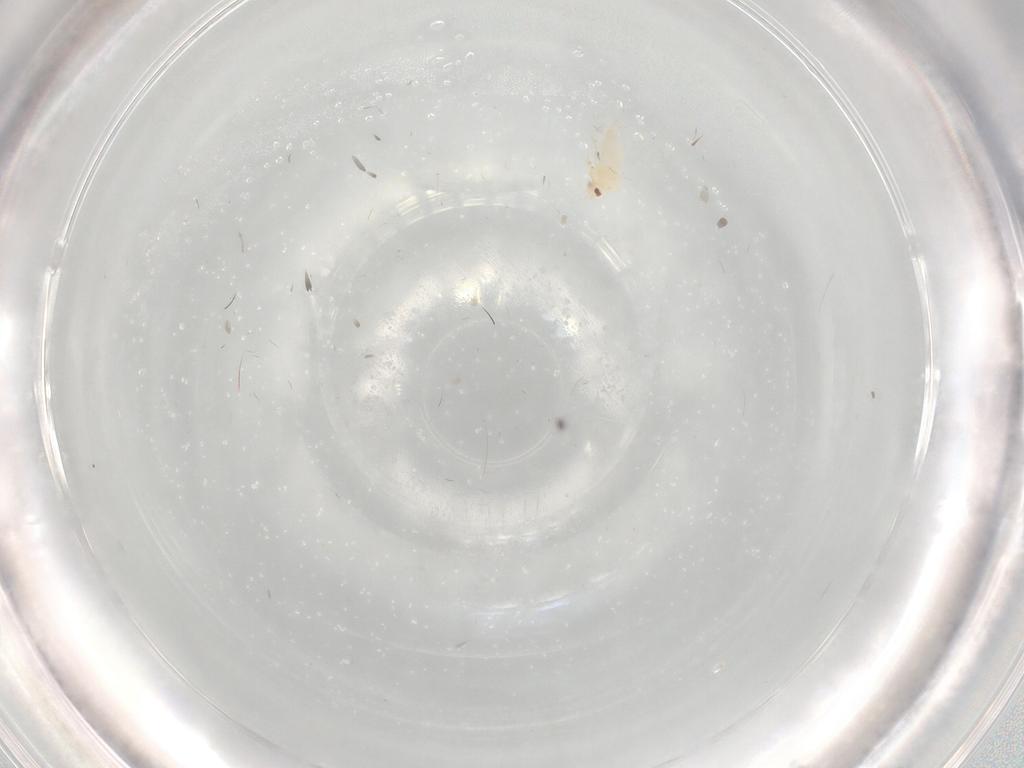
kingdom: Animalia
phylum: Arthropoda
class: Insecta
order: Hemiptera
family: Aleyrodidae
